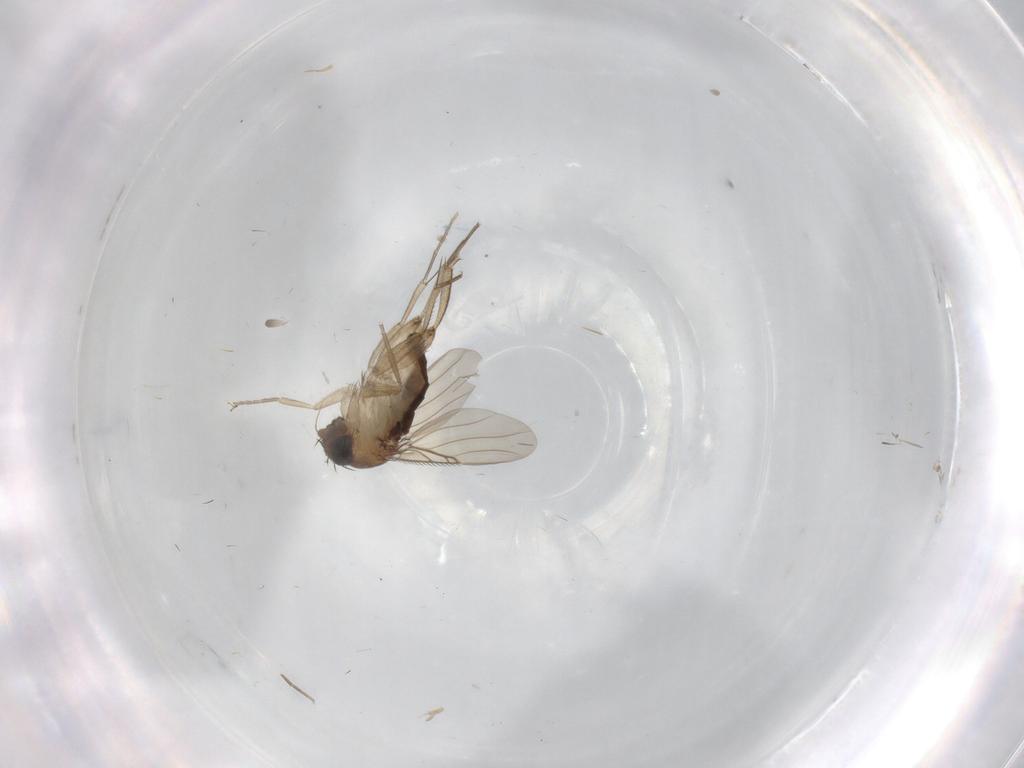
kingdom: Animalia
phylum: Arthropoda
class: Insecta
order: Diptera
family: Phoridae
